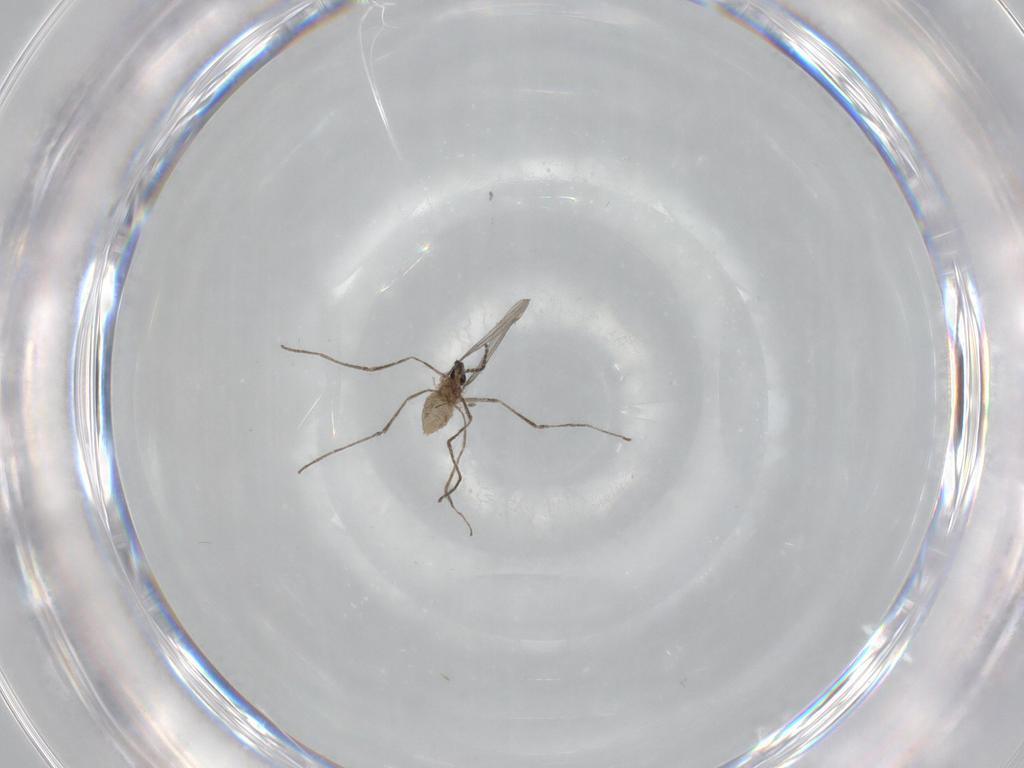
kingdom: Animalia
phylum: Arthropoda
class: Insecta
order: Diptera
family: Cecidomyiidae
